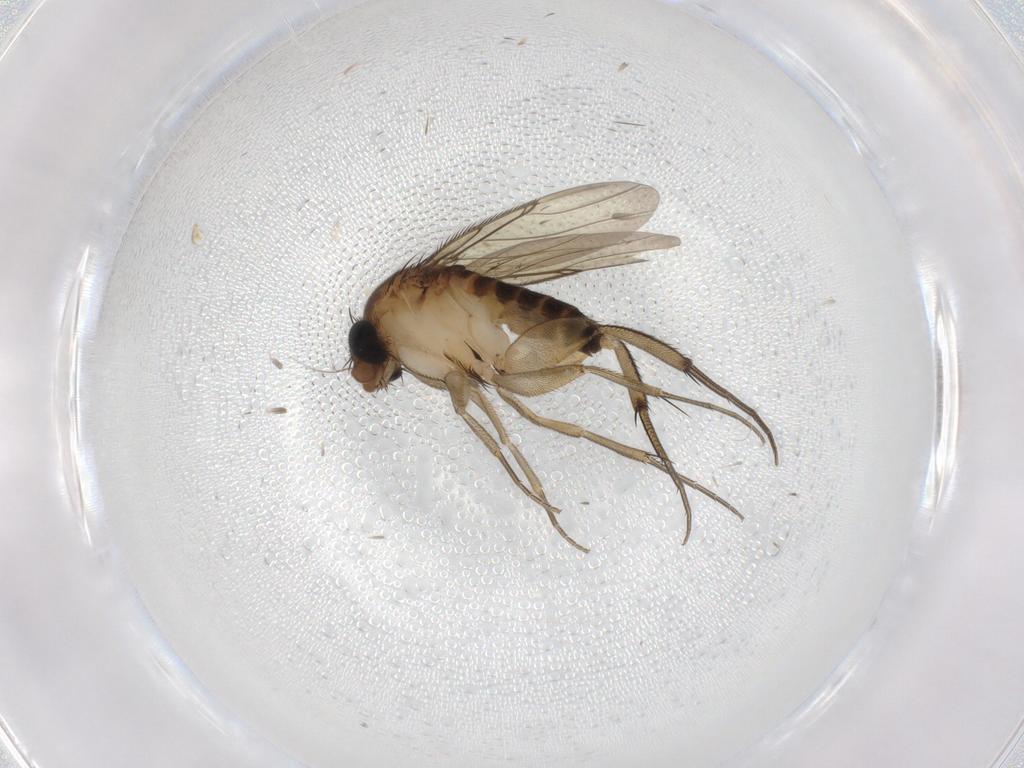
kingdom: Animalia
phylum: Arthropoda
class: Insecta
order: Diptera
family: Phoridae
